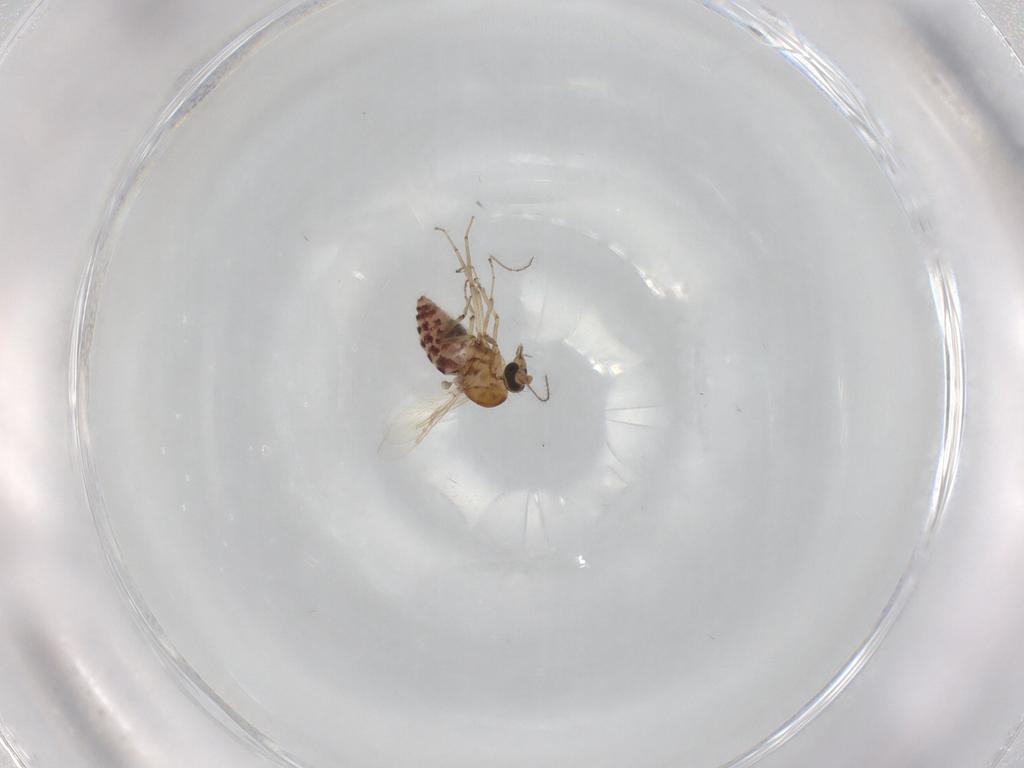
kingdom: Animalia
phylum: Arthropoda
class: Insecta
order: Diptera
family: Ceratopogonidae
